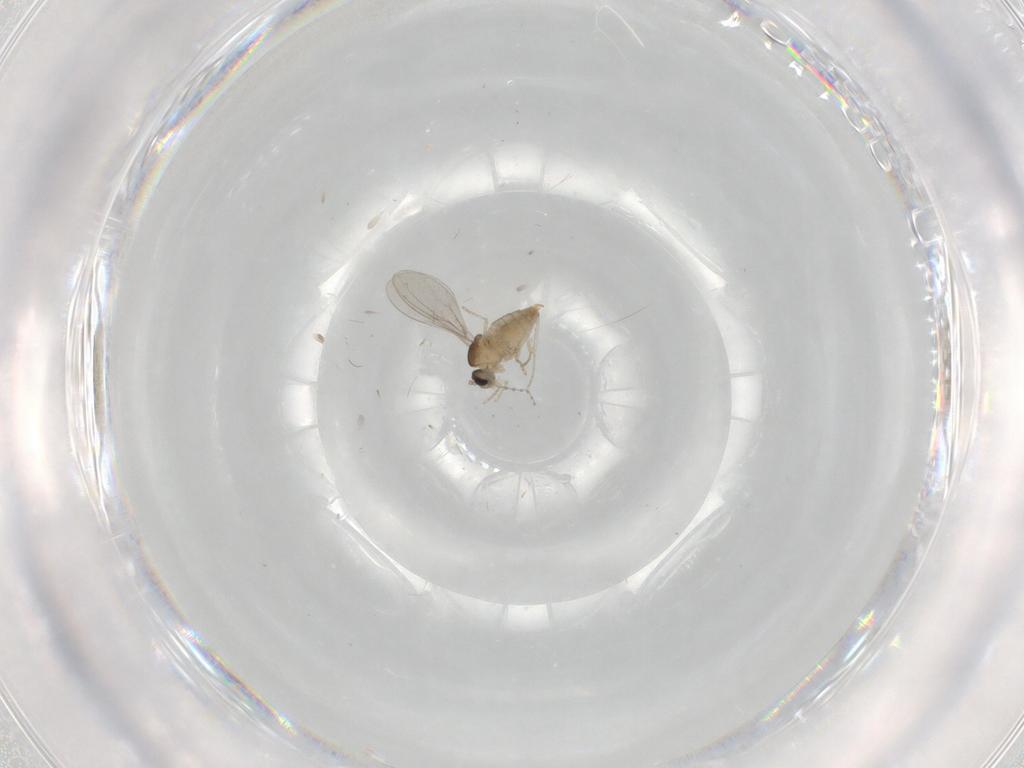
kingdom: Animalia
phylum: Arthropoda
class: Insecta
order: Diptera
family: Cecidomyiidae
